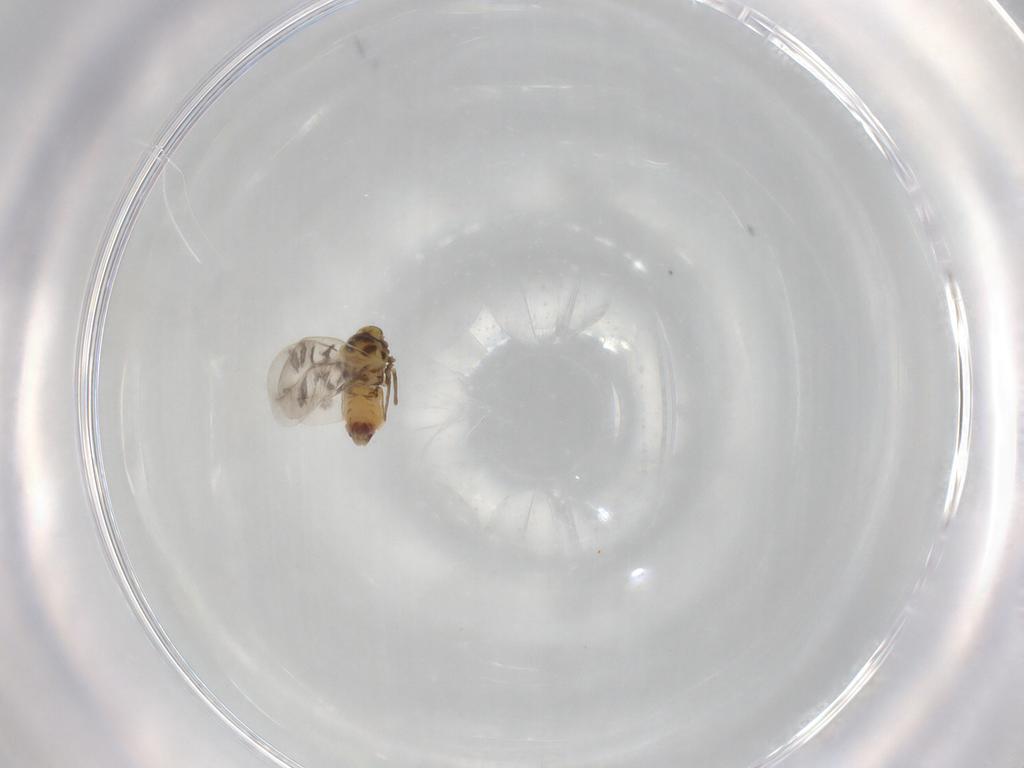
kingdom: Animalia
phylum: Arthropoda
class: Insecta
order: Hemiptera
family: Aleyrodidae
